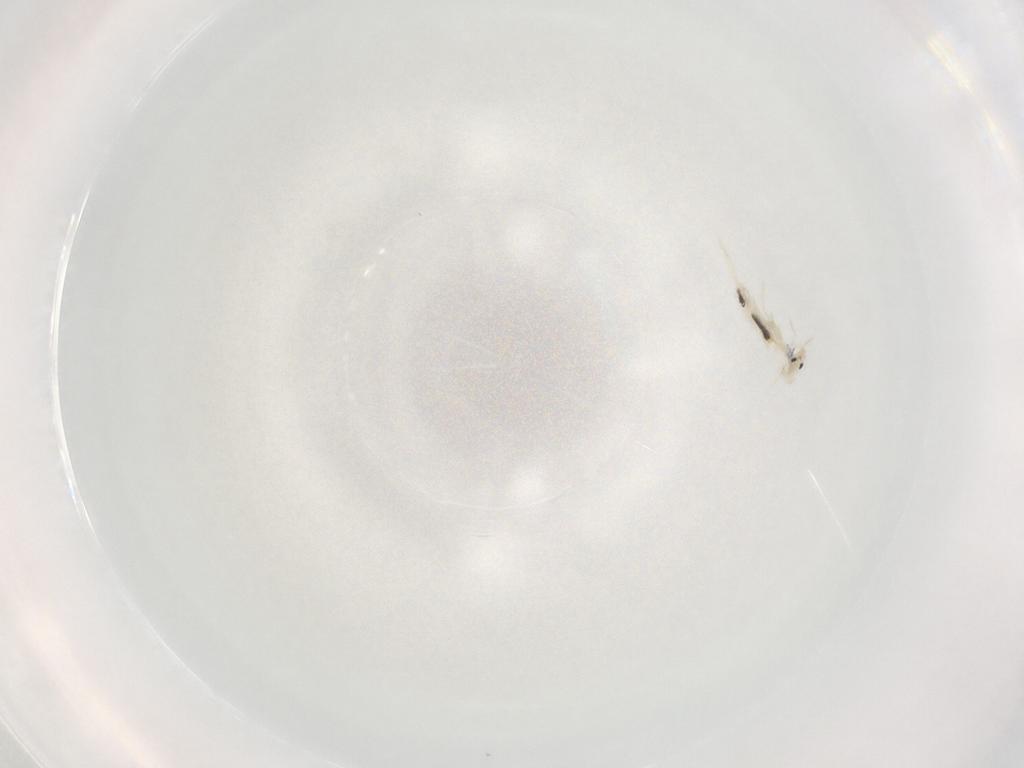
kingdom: Animalia
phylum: Arthropoda
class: Collembola
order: Entomobryomorpha
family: Entomobryidae
